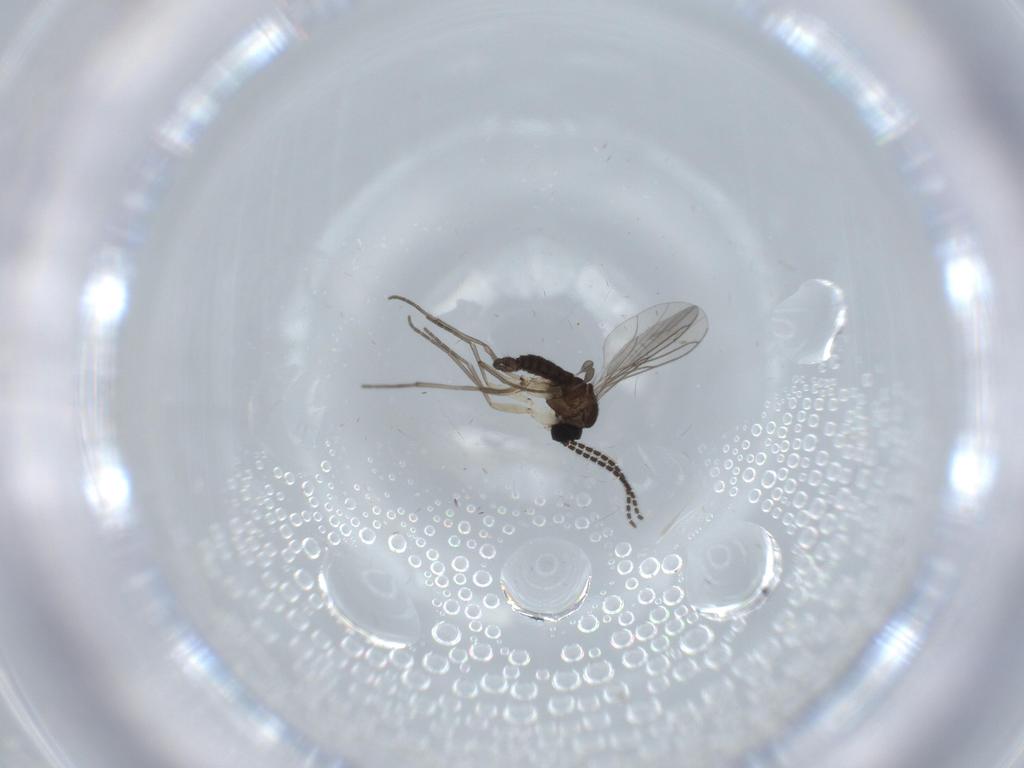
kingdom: Animalia
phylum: Arthropoda
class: Insecta
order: Diptera
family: Sciaridae
